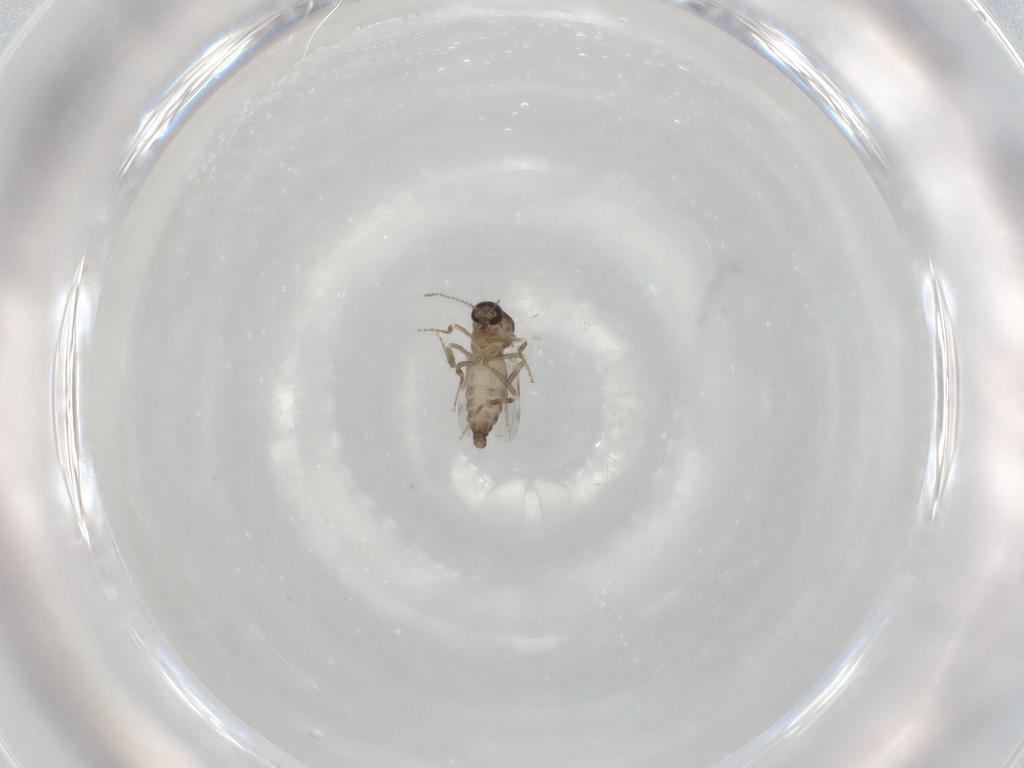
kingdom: Animalia
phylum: Arthropoda
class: Insecta
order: Diptera
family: Ceratopogonidae
